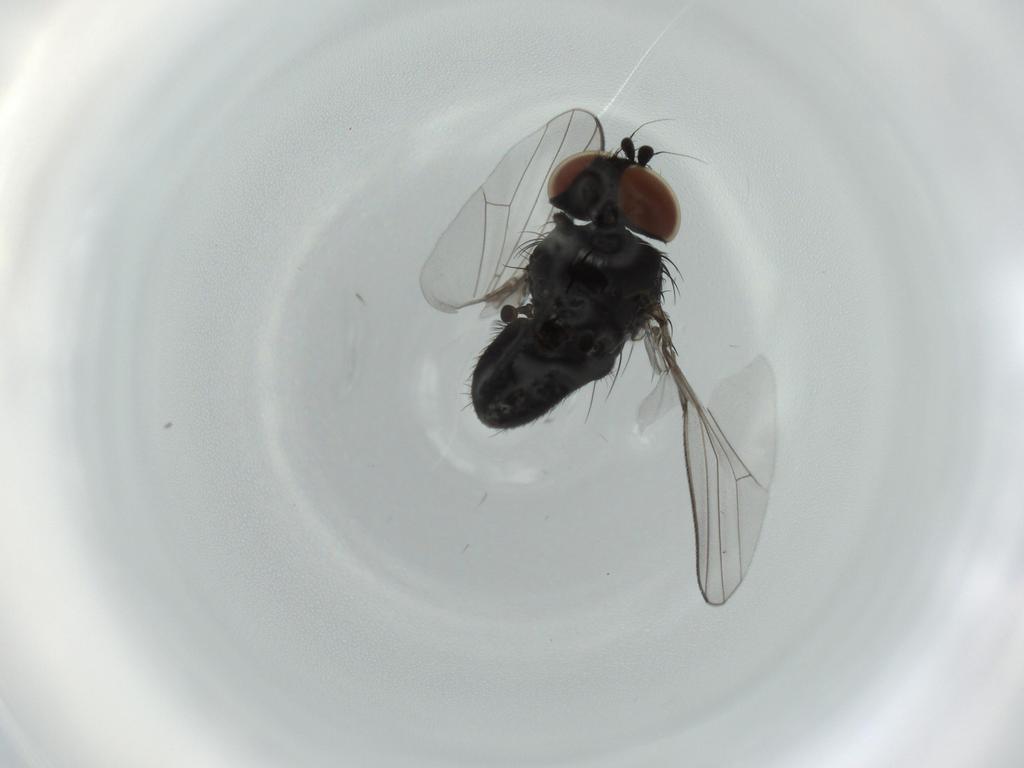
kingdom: Animalia
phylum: Arthropoda
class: Insecta
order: Diptera
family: Milichiidae
